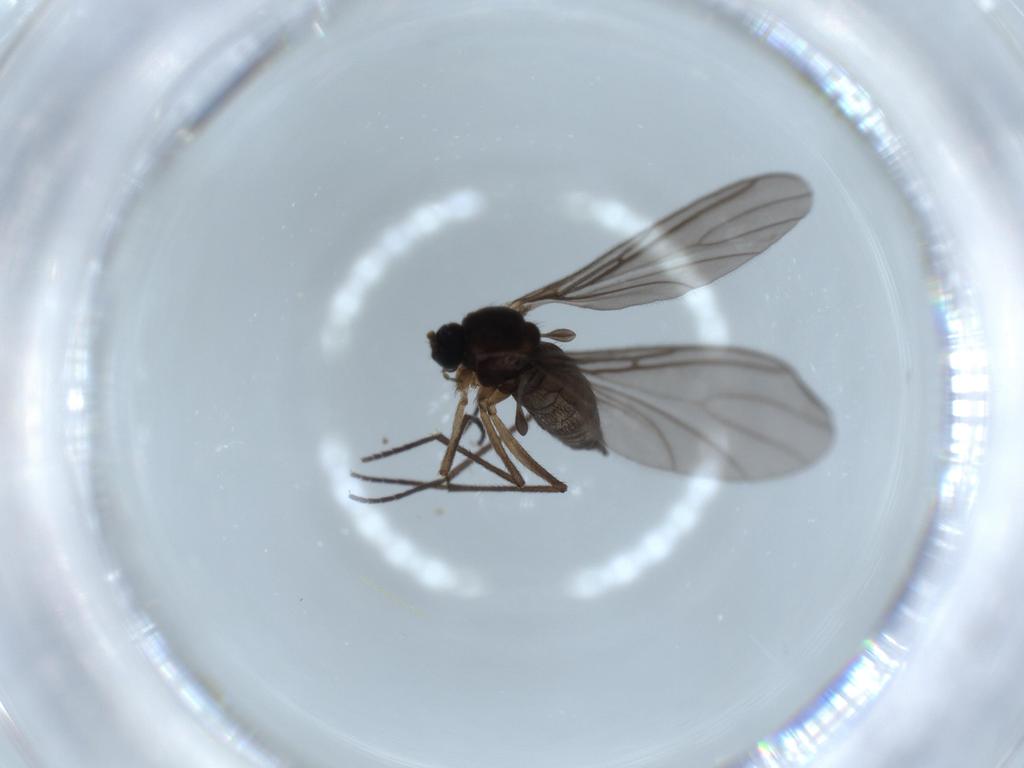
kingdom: Animalia
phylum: Arthropoda
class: Insecta
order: Diptera
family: Sciaridae
